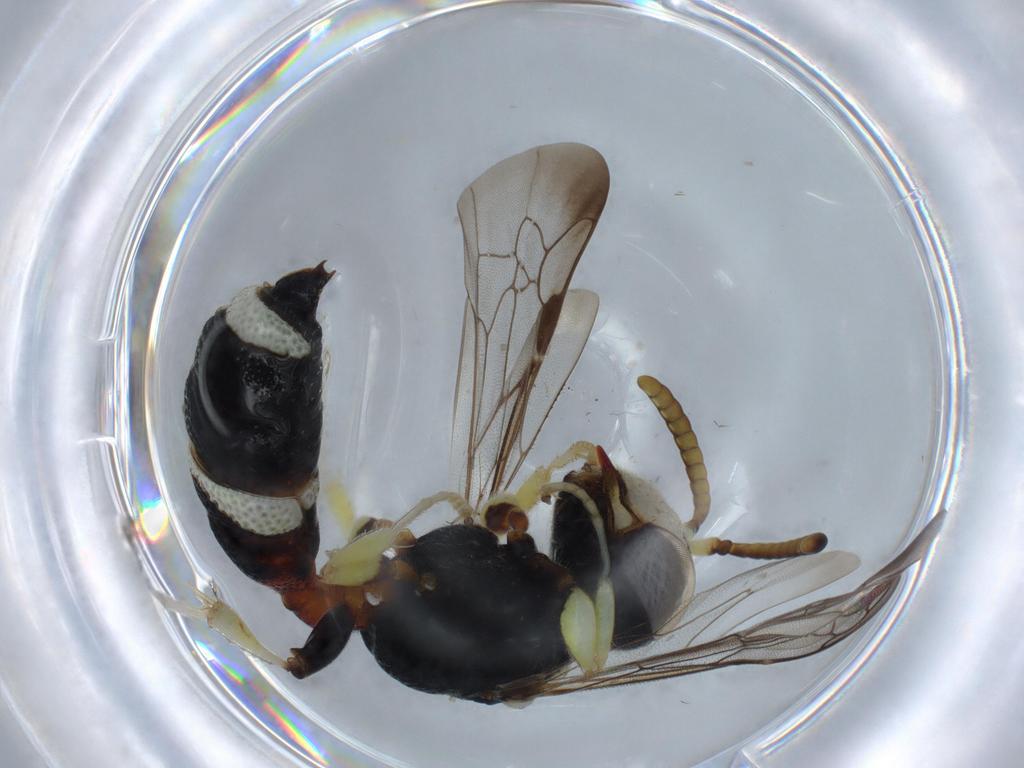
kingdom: Animalia
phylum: Arthropoda
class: Insecta
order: Hymenoptera
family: Crabronidae
